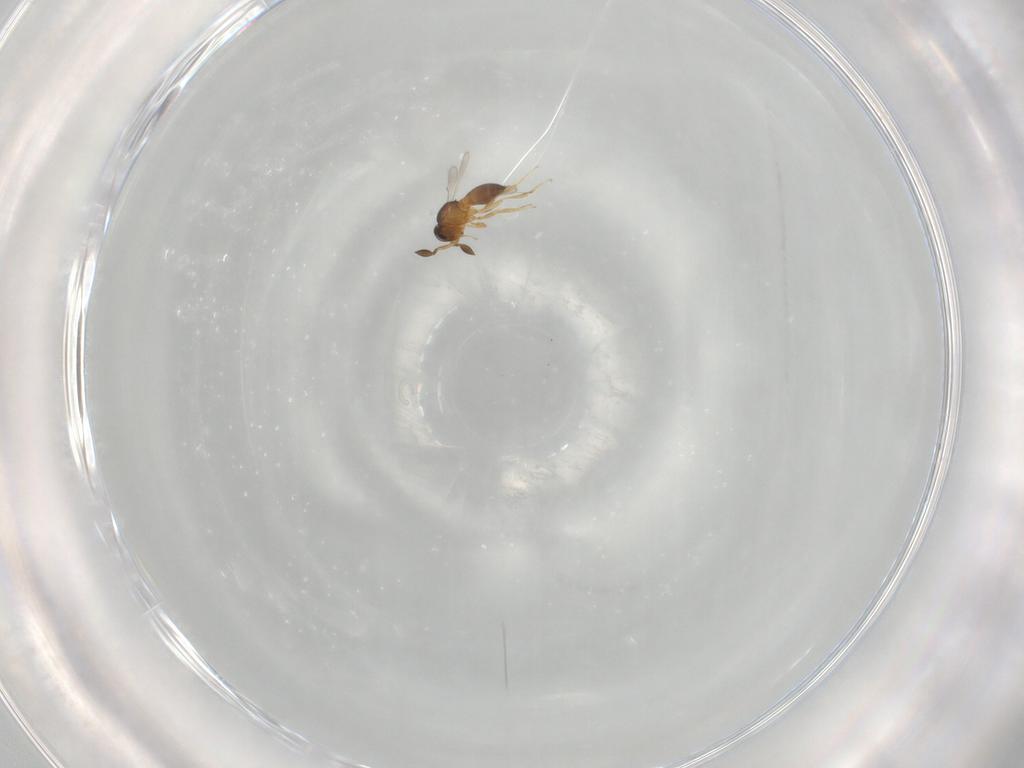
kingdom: Animalia
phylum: Arthropoda
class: Insecta
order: Hymenoptera
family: Scelionidae
